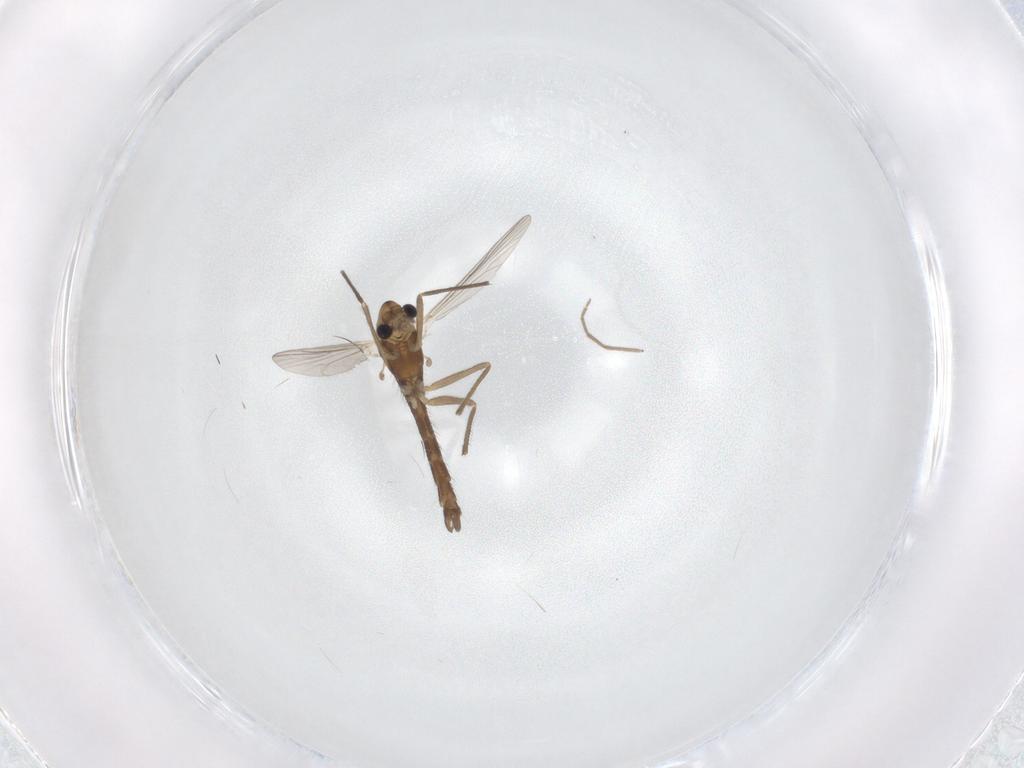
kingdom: Animalia
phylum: Arthropoda
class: Insecta
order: Diptera
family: Chironomidae
